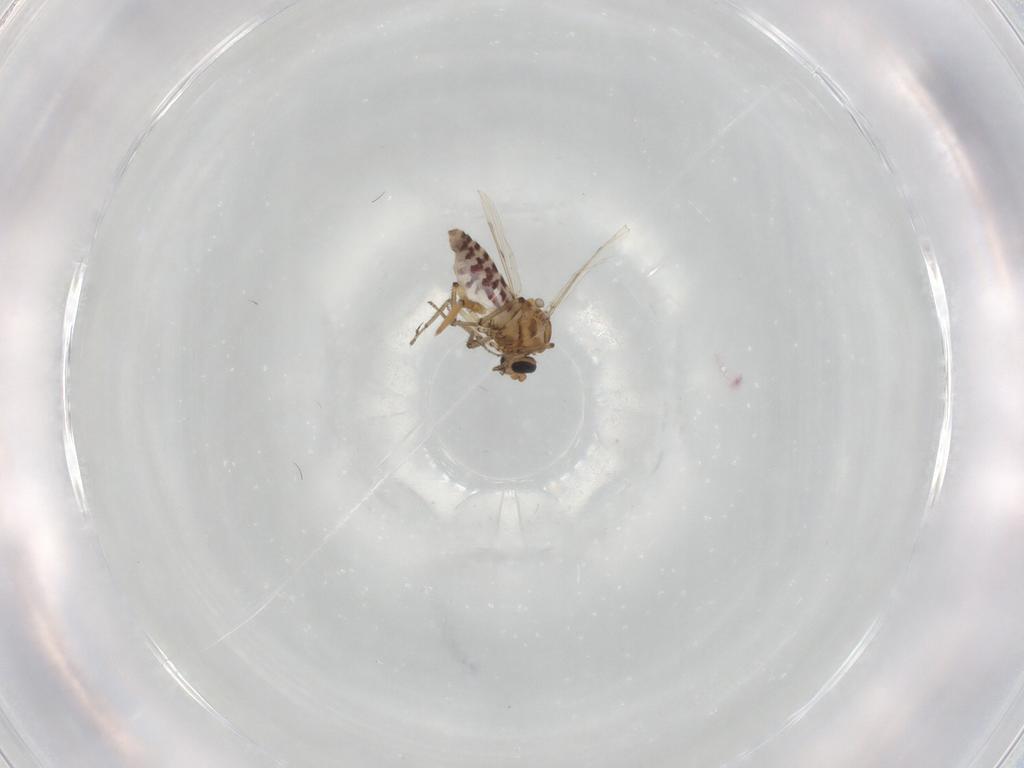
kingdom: Animalia
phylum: Arthropoda
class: Insecta
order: Diptera
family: Ceratopogonidae
